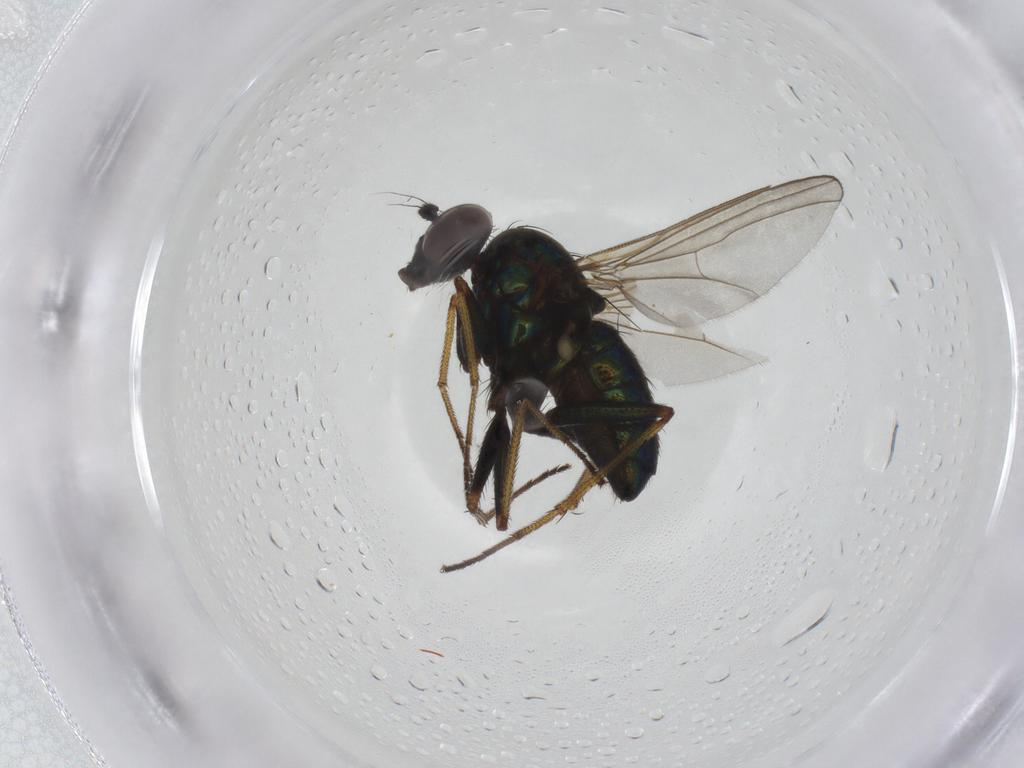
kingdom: Animalia
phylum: Arthropoda
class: Insecta
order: Diptera
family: Dolichopodidae
